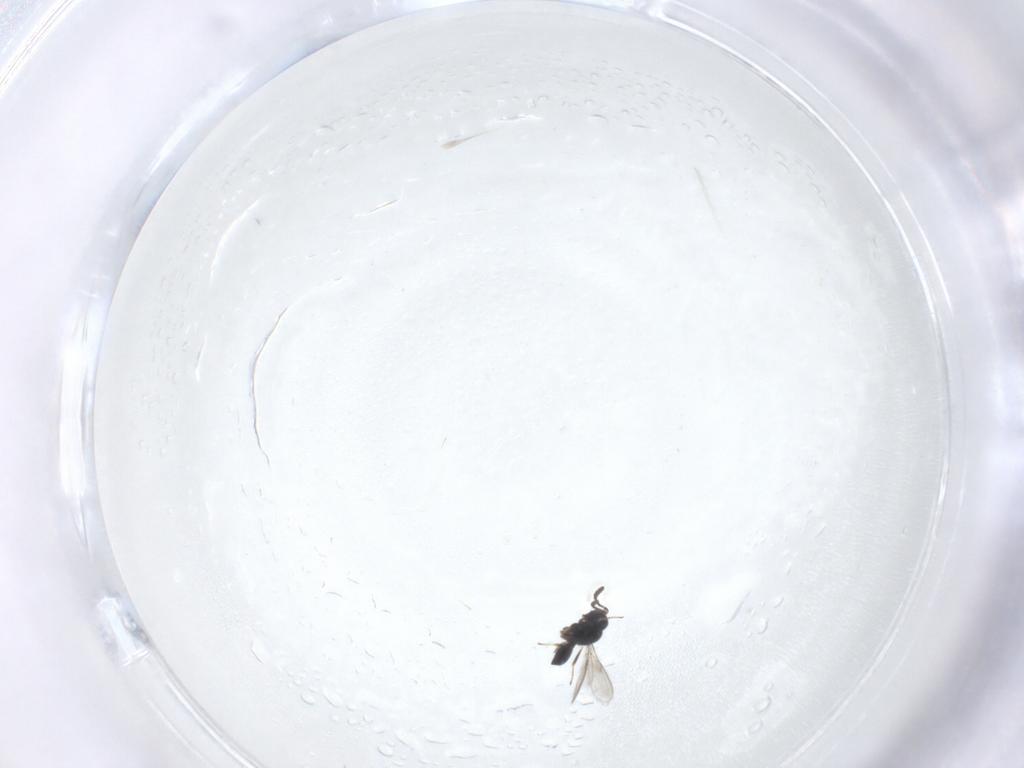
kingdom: Animalia
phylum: Arthropoda
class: Insecta
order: Hymenoptera
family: Scelionidae
